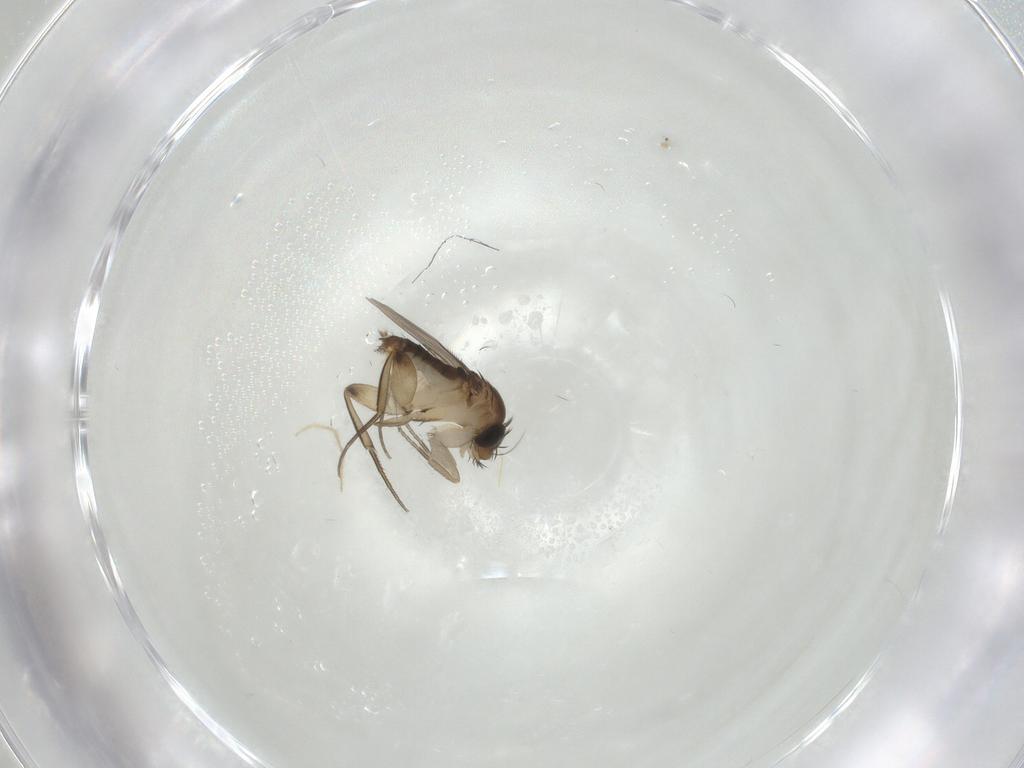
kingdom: Animalia
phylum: Arthropoda
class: Insecta
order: Diptera
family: Phoridae
